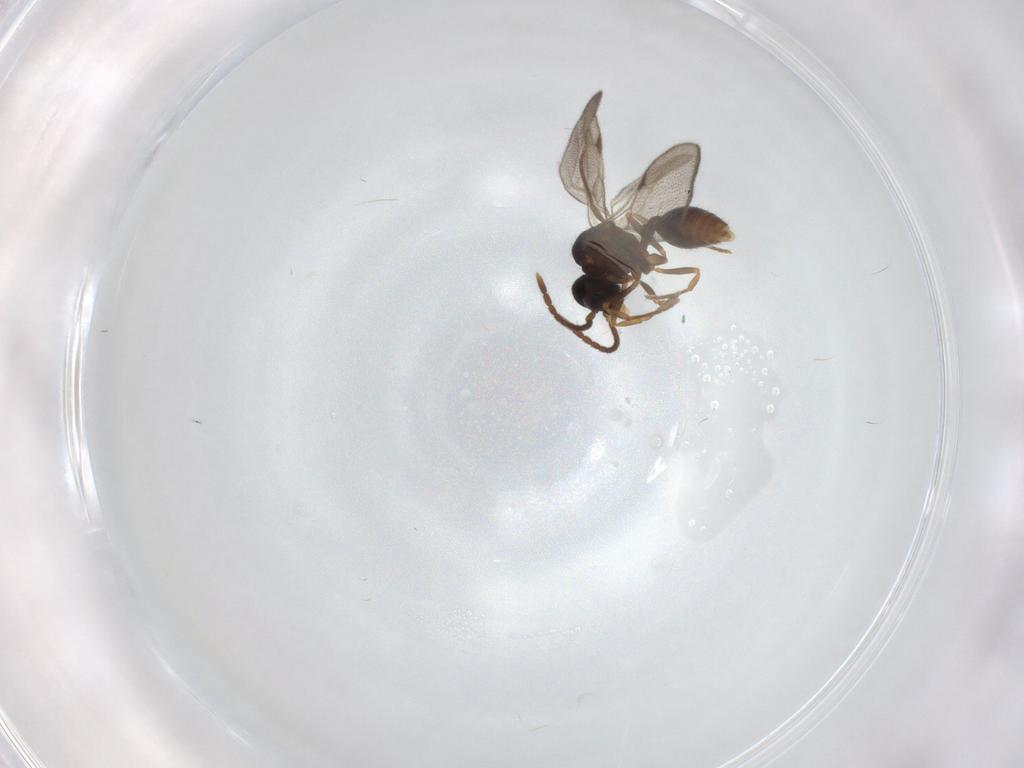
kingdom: Animalia
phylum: Arthropoda
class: Insecta
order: Hymenoptera
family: Formicidae
